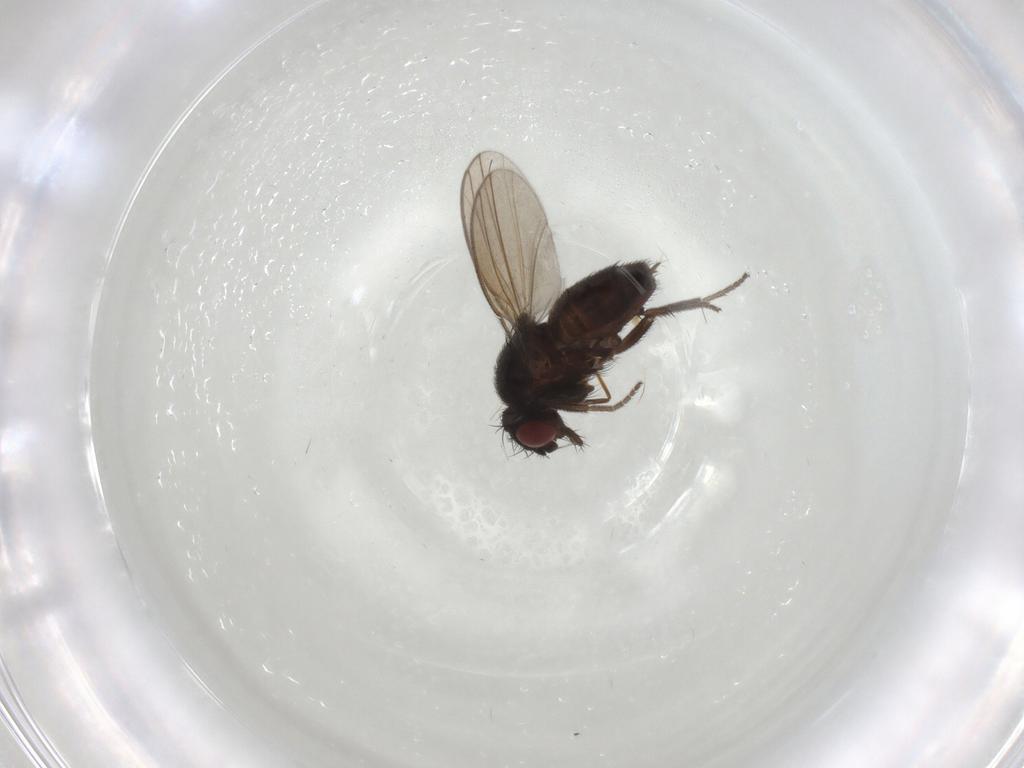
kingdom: Animalia
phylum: Arthropoda
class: Insecta
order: Diptera
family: Milichiidae
